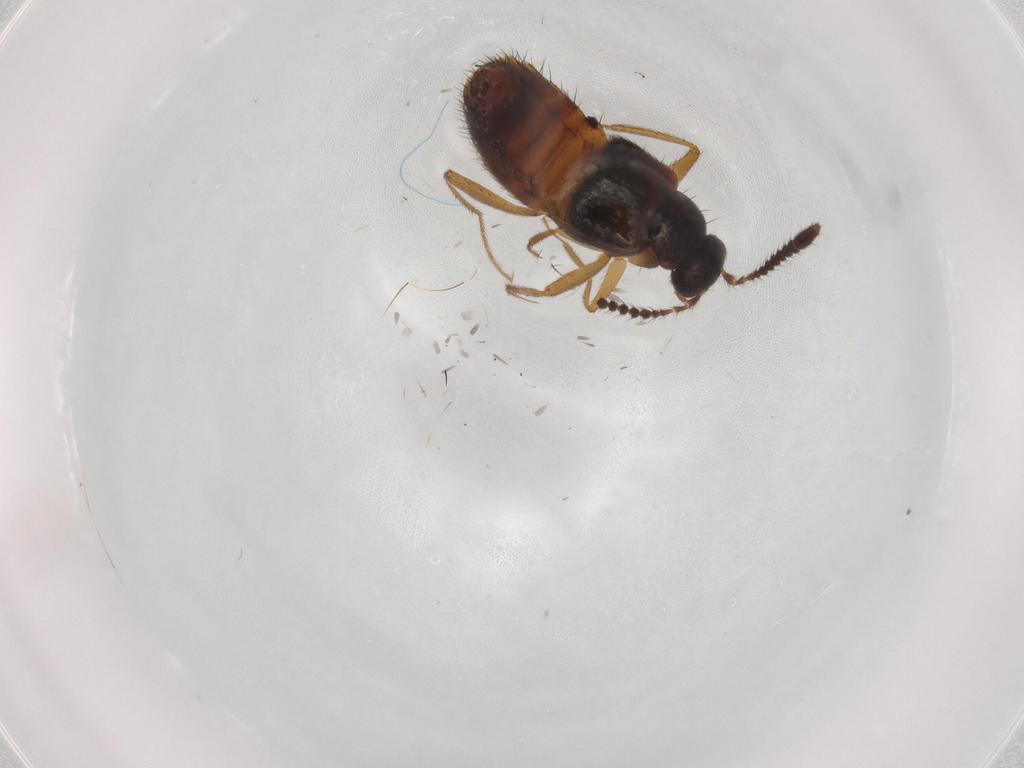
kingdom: Animalia
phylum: Arthropoda
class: Insecta
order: Coleoptera
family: Staphylinidae
